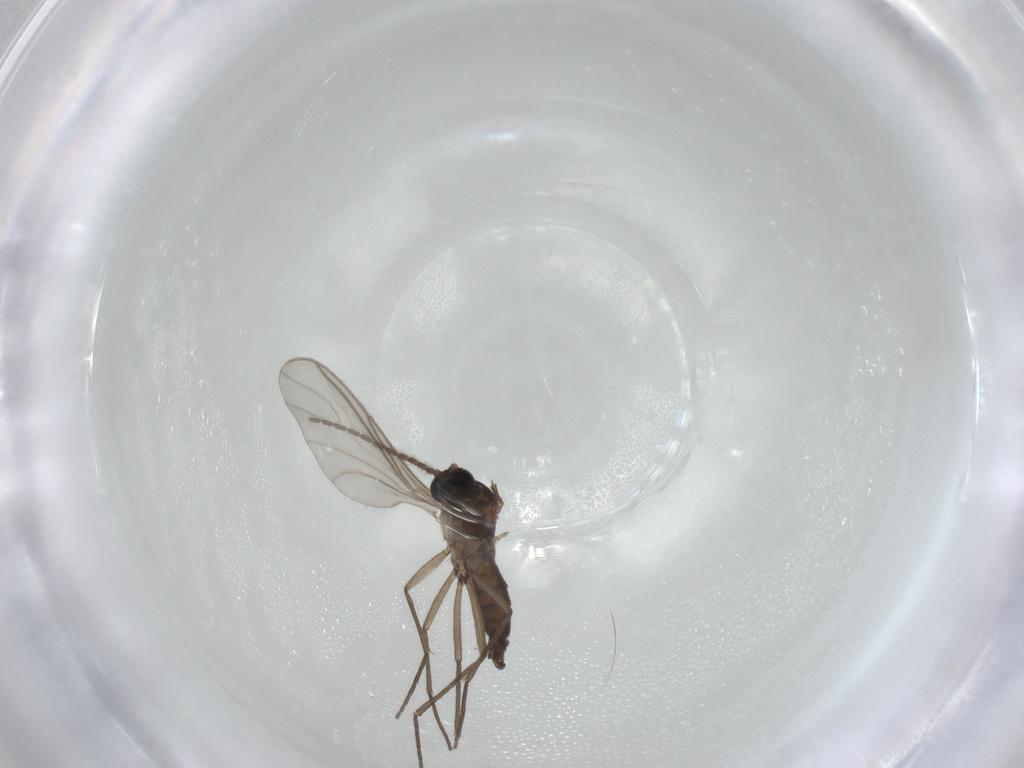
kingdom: Animalia
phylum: Arthropoda
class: Insecta
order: Diptera
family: Sciaridae
